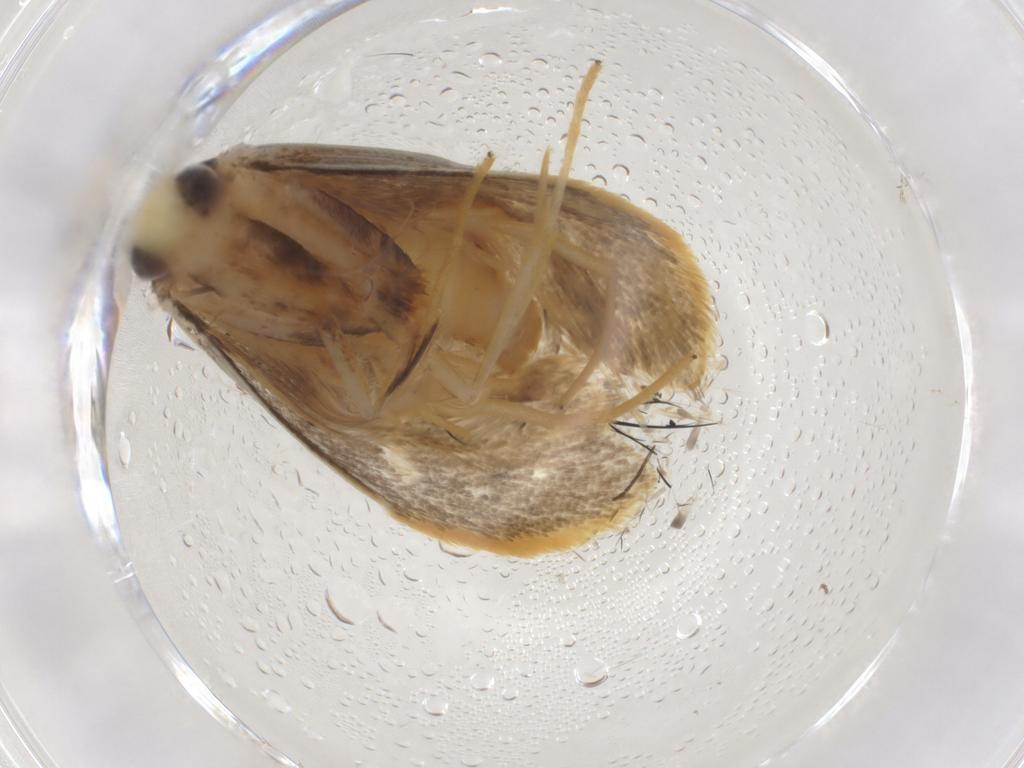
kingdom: Animalia
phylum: Arthropoda
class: Insecta
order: Lepidoptera
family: Lecithoceridae
